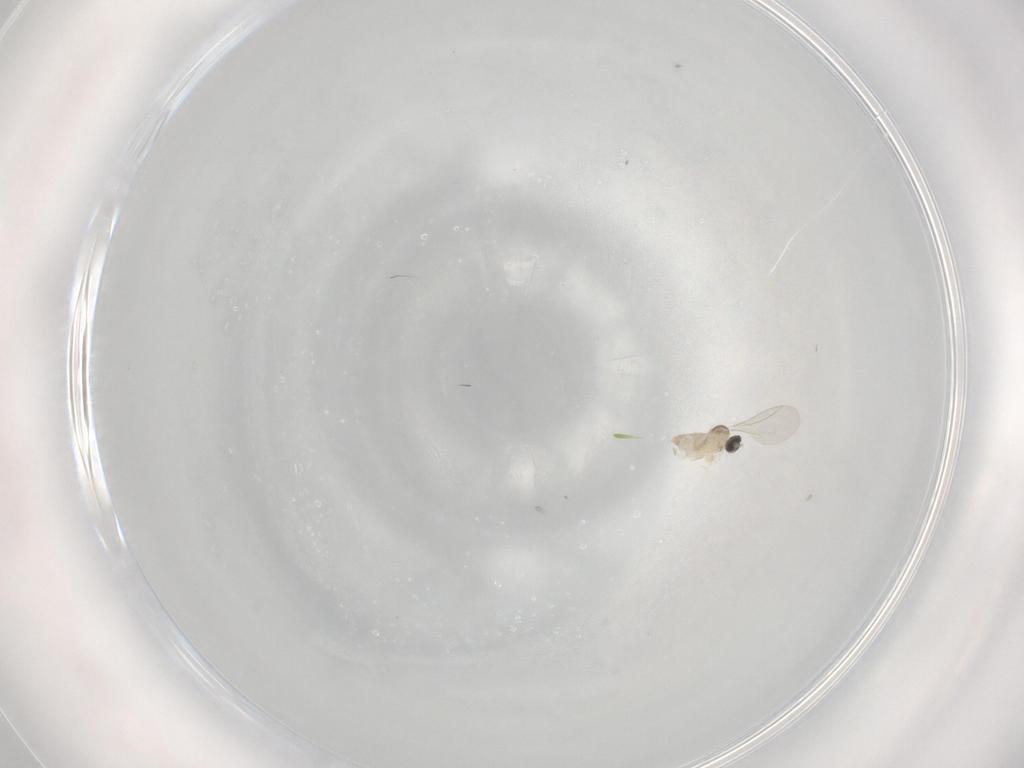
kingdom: Animalia
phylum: Arthropoda
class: Insecta
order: Diptera
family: Cecidomyiidae
